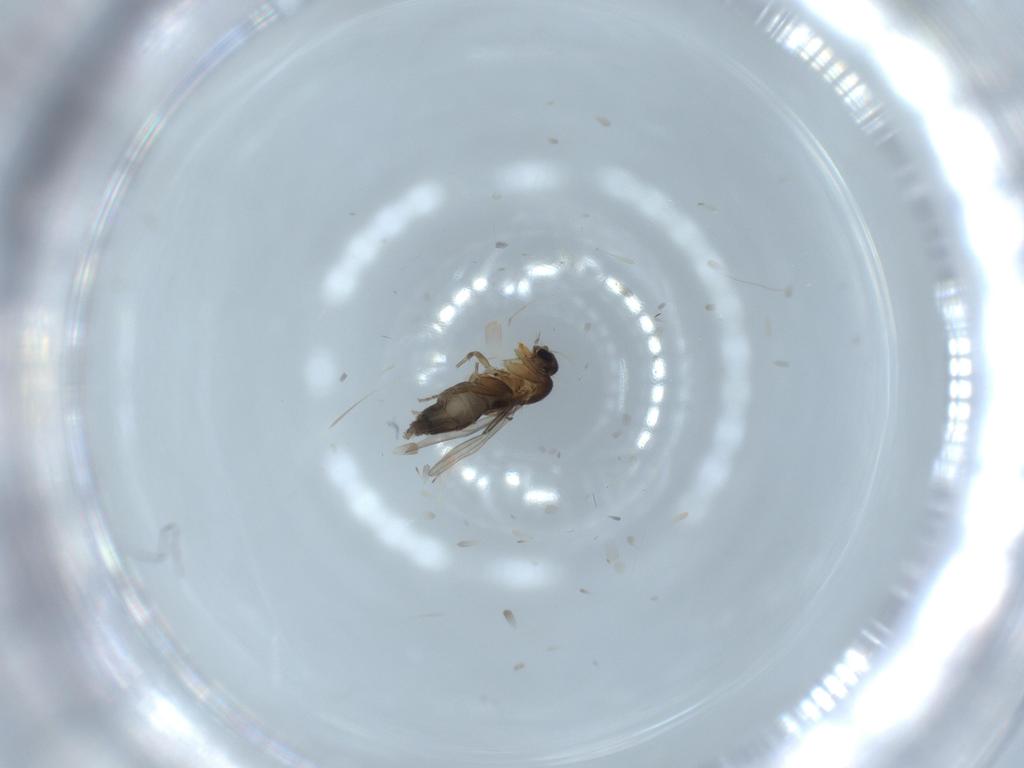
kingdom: Animalia
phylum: Arthropoda
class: Insecta
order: Diptera
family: Phoridae
